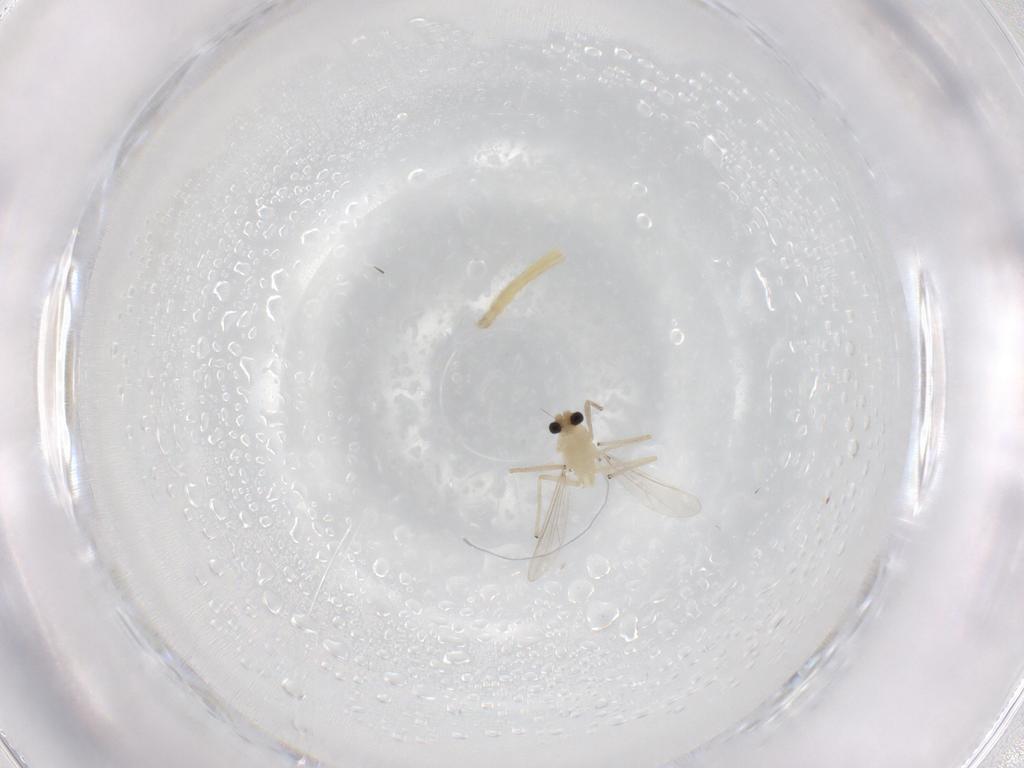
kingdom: Animalia
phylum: Arthropoda
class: Insecta
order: Diptera
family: Chironomidae
